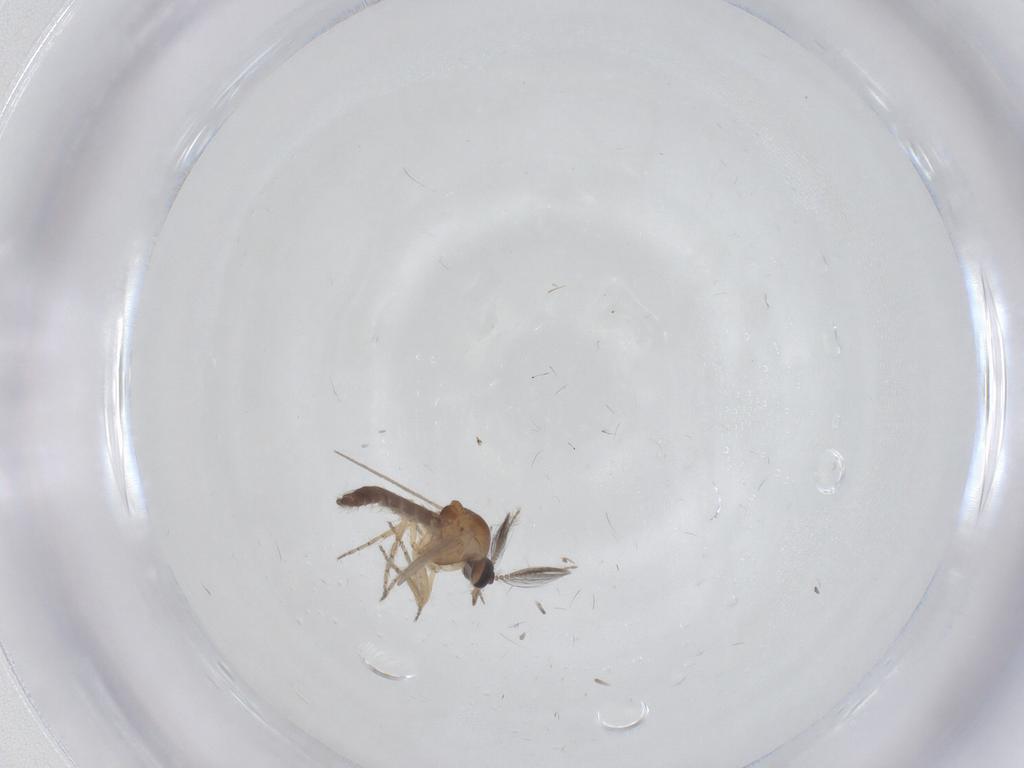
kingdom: Animalia
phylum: Arthropoda
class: Insecta
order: Diptera
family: Ceratopogonidae
